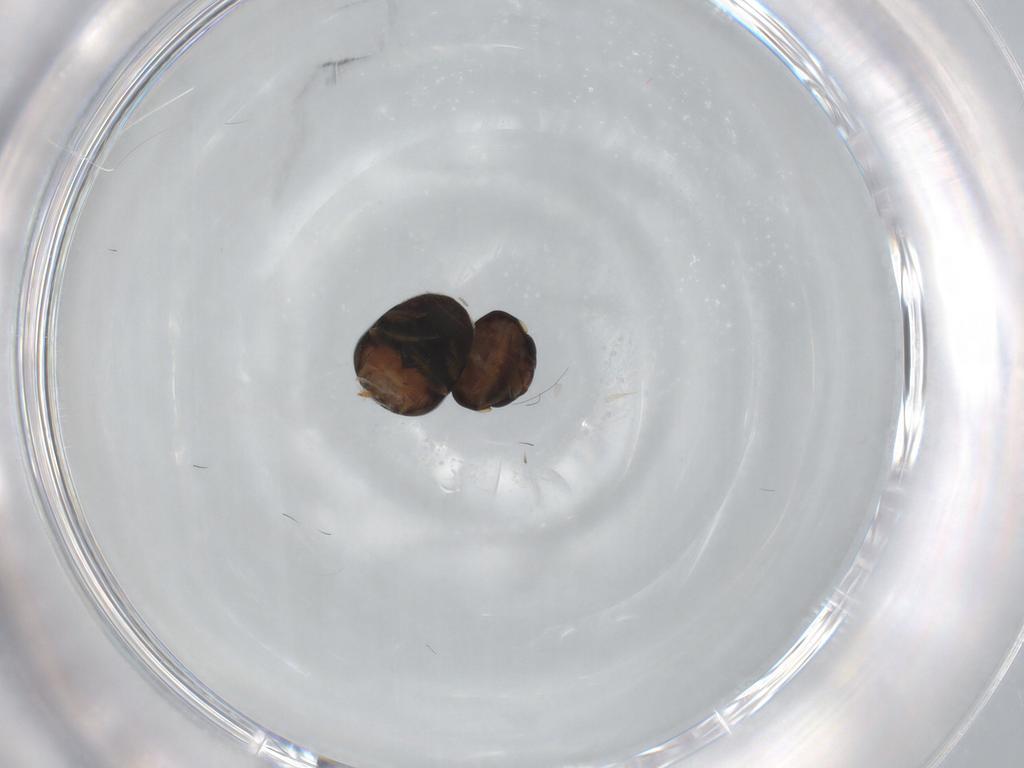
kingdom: Animalia
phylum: Arthropoda
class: Insecta
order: Coleoptera
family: Cybocephalidae
